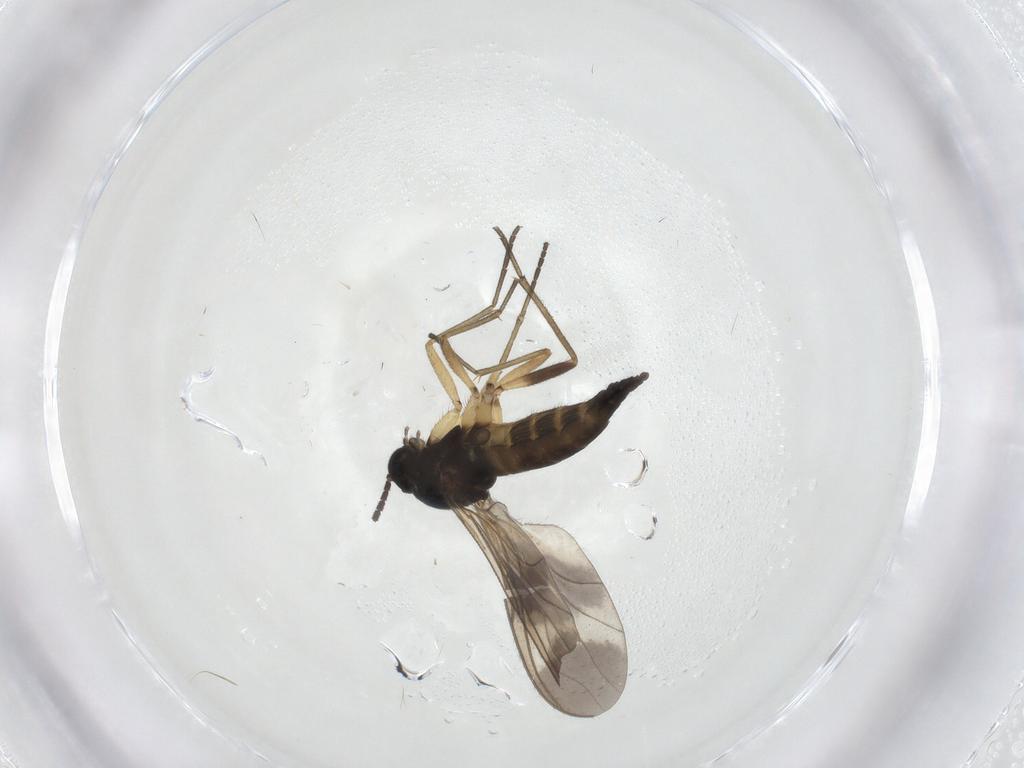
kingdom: Animalia
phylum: Arthropoda
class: Insecta
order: Diptera
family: Sciaridae
